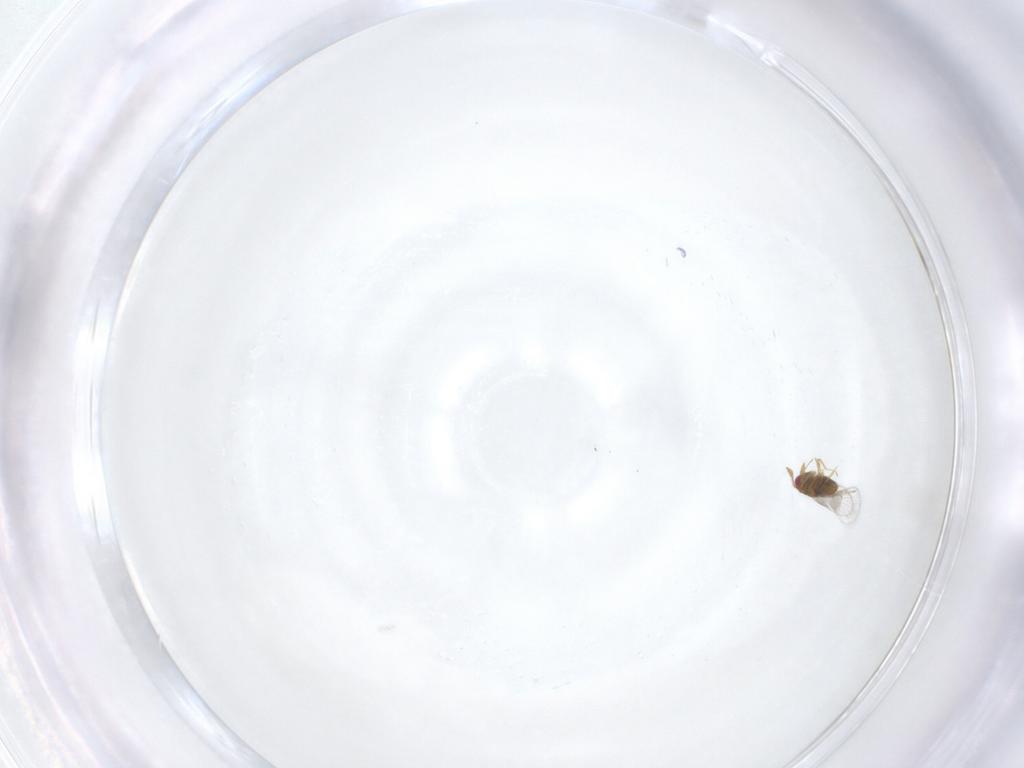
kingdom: Animalia
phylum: Arthropoda
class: Insecta
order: Hymenoptera
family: Trichogrammatidae
